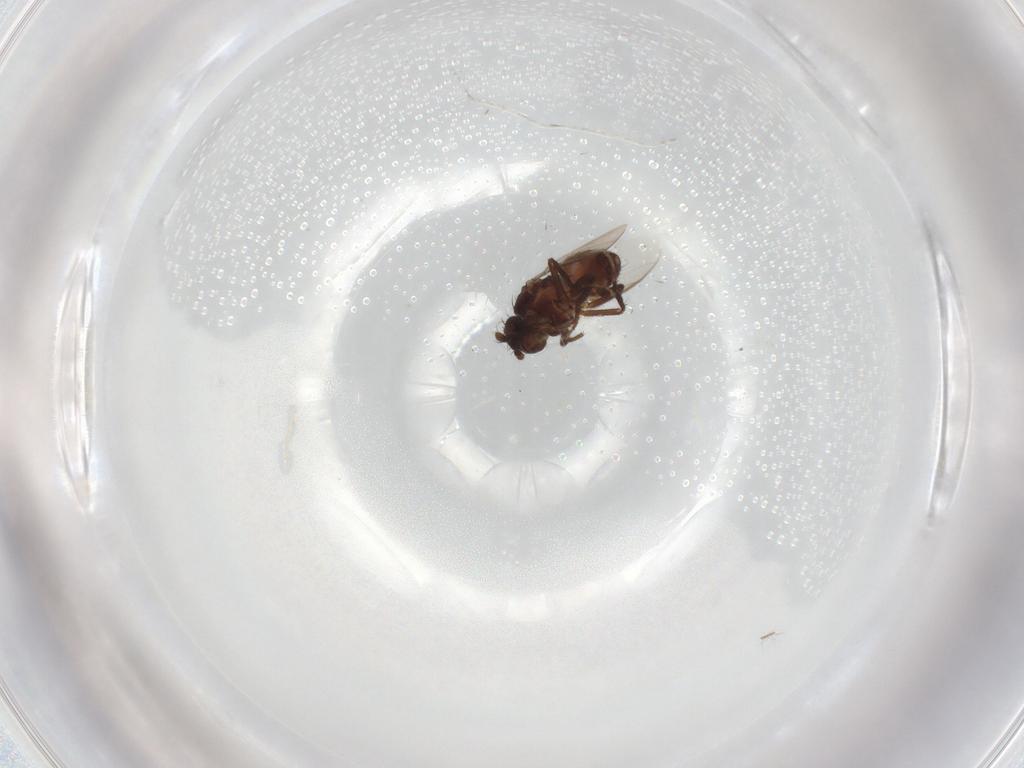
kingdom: Animalia
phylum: Arthropoda
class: Insecta
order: Diptera
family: Sphaeroceridae
